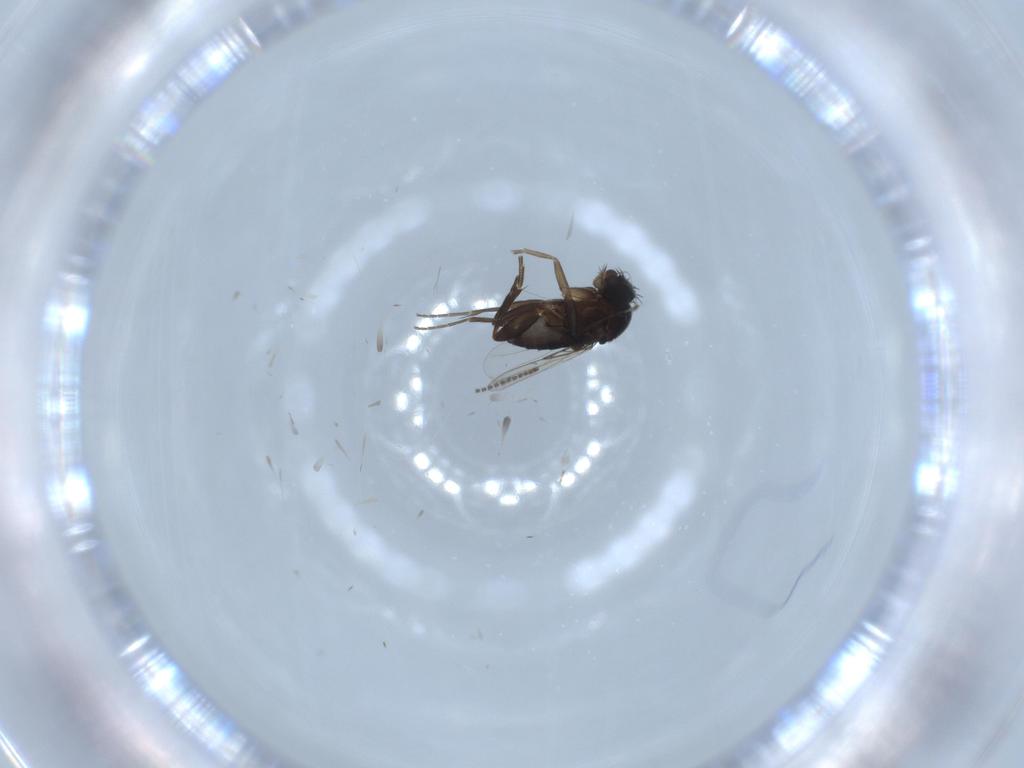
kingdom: Animalia
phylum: Arthropoda
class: Insecta
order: Diptera
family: Phoridae
